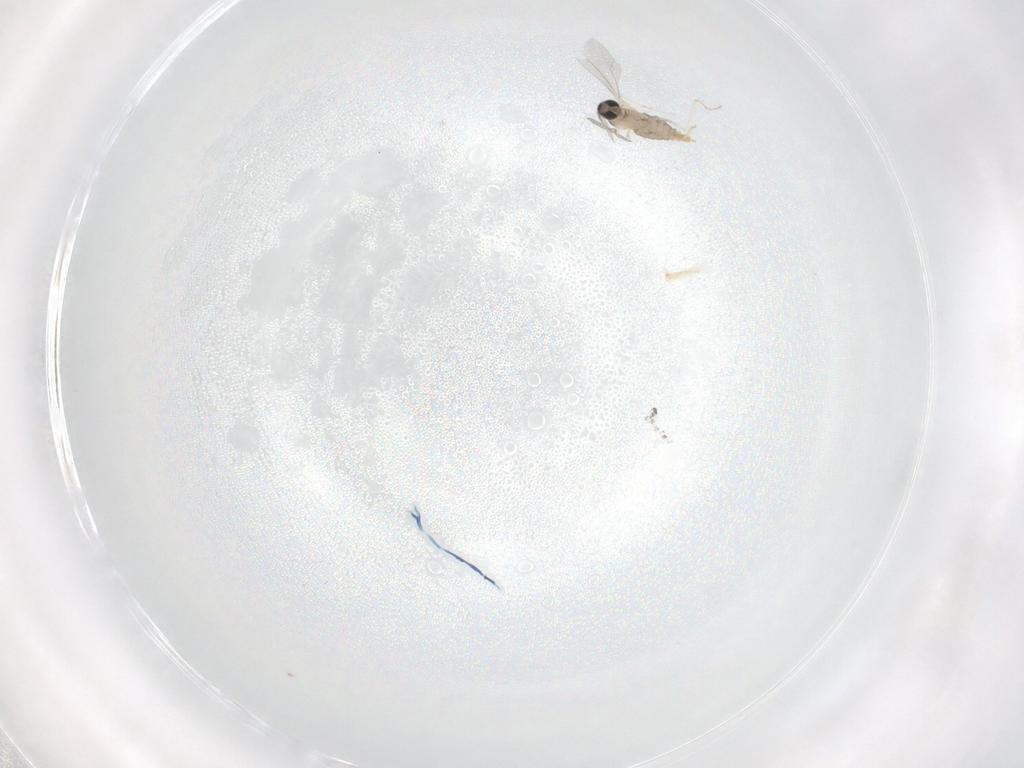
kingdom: Animalia
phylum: Arthropoda
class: Insecta
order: Diptera
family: Cecidomyiidae
